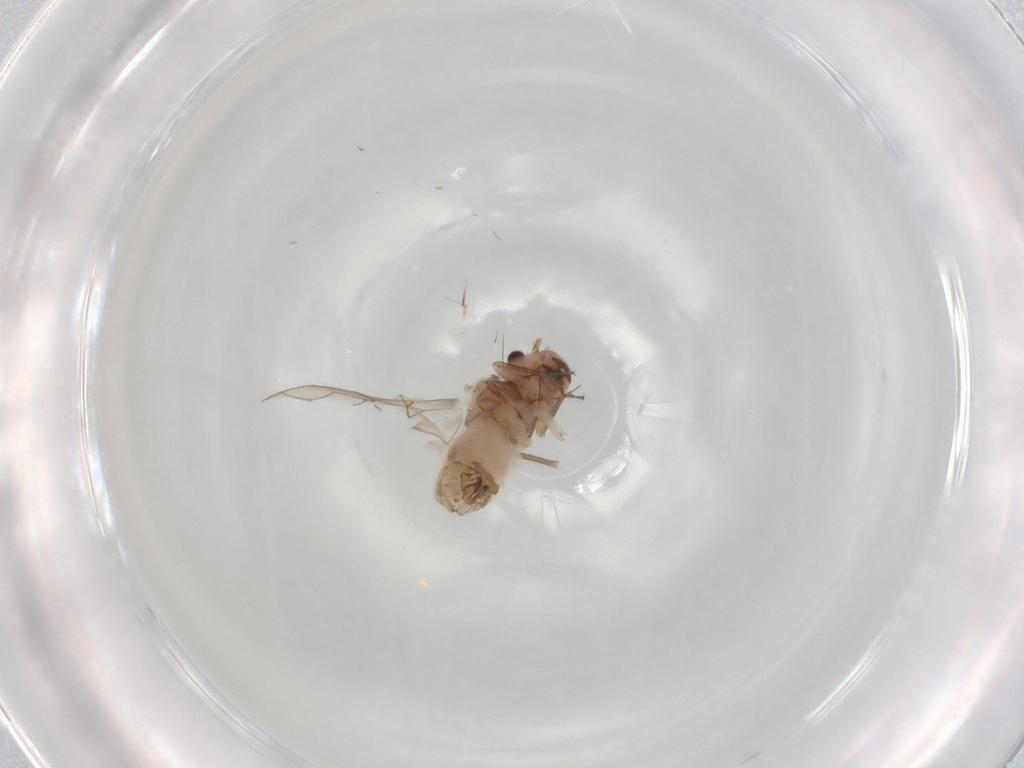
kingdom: Animalia
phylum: Arthropoda
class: Insecta
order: Psocodea
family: Peripsocidae
